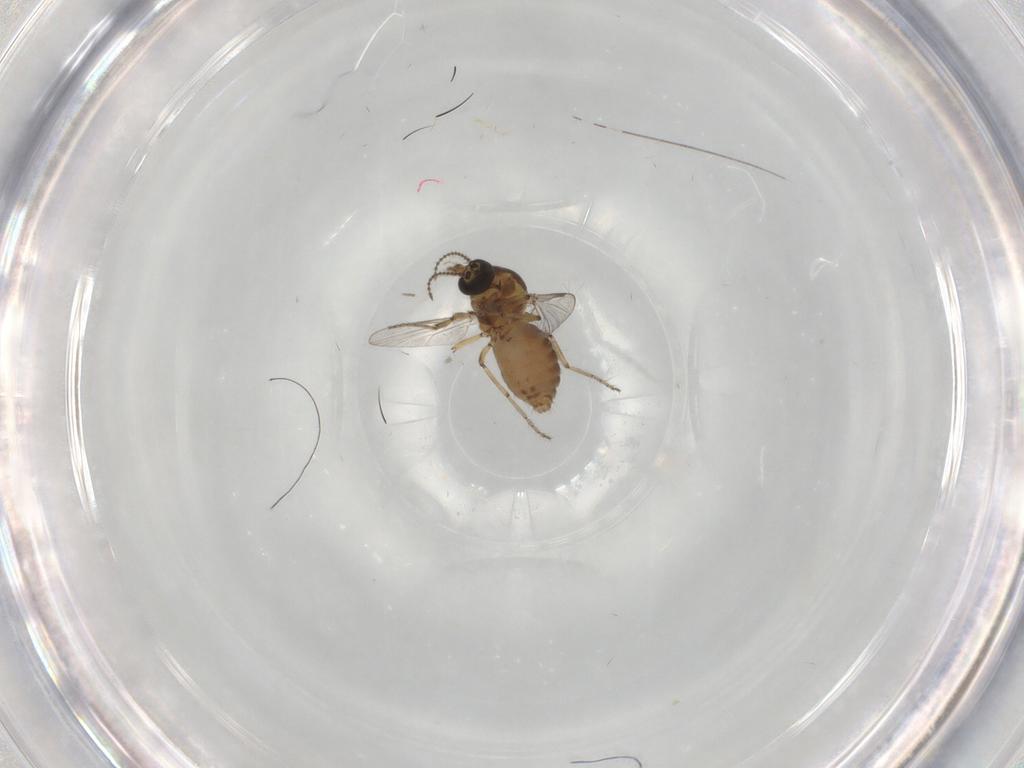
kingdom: Animalia
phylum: Arthropoda
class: Insecta
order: Diptera
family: Ceratopogonidae
